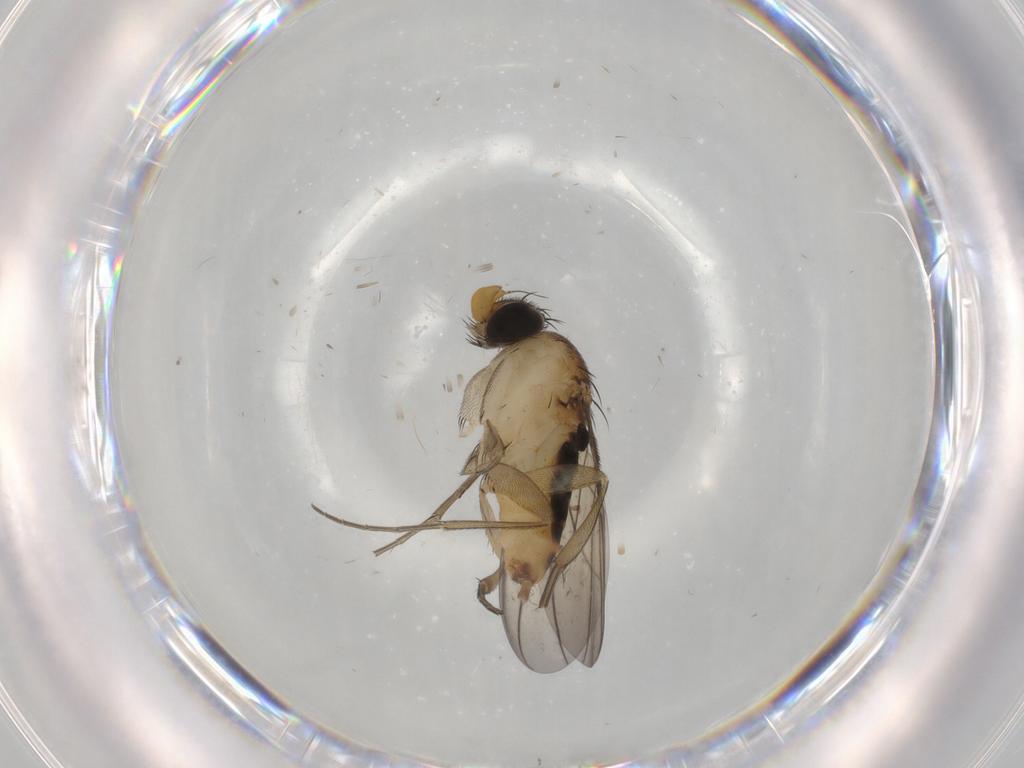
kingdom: Animalia
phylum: Arthropoda
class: Insecta
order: Diptera
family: Phoridae
